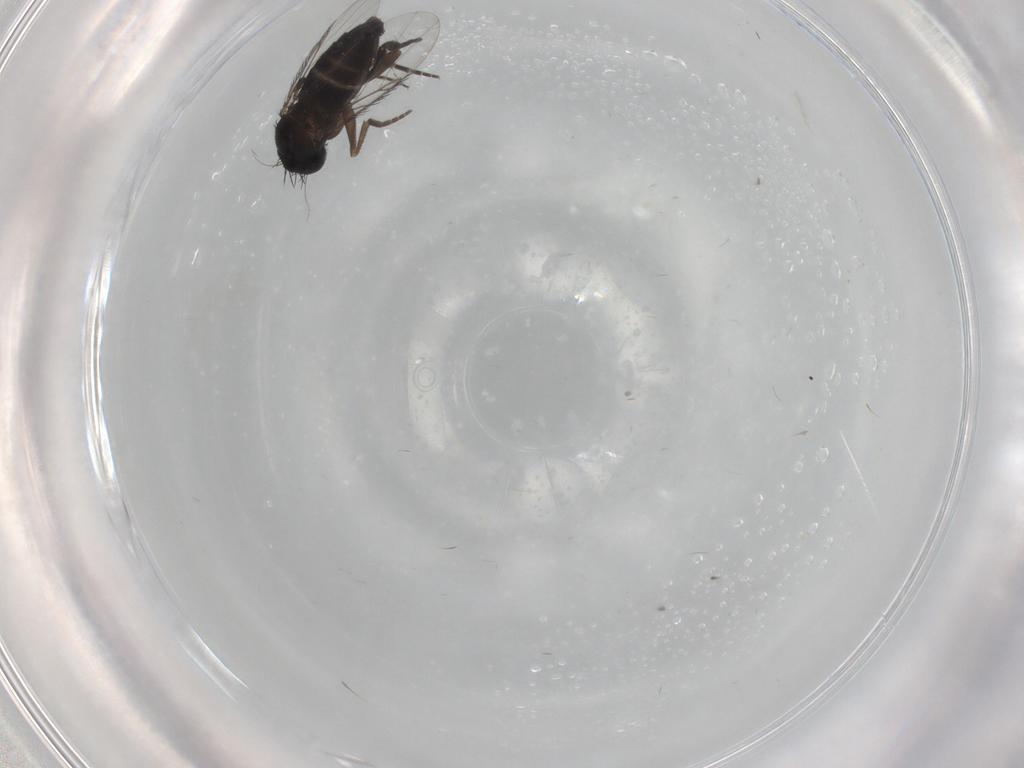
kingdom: Animalia
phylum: Arthropoda
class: Insecta
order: Diptera
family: Phoridae
